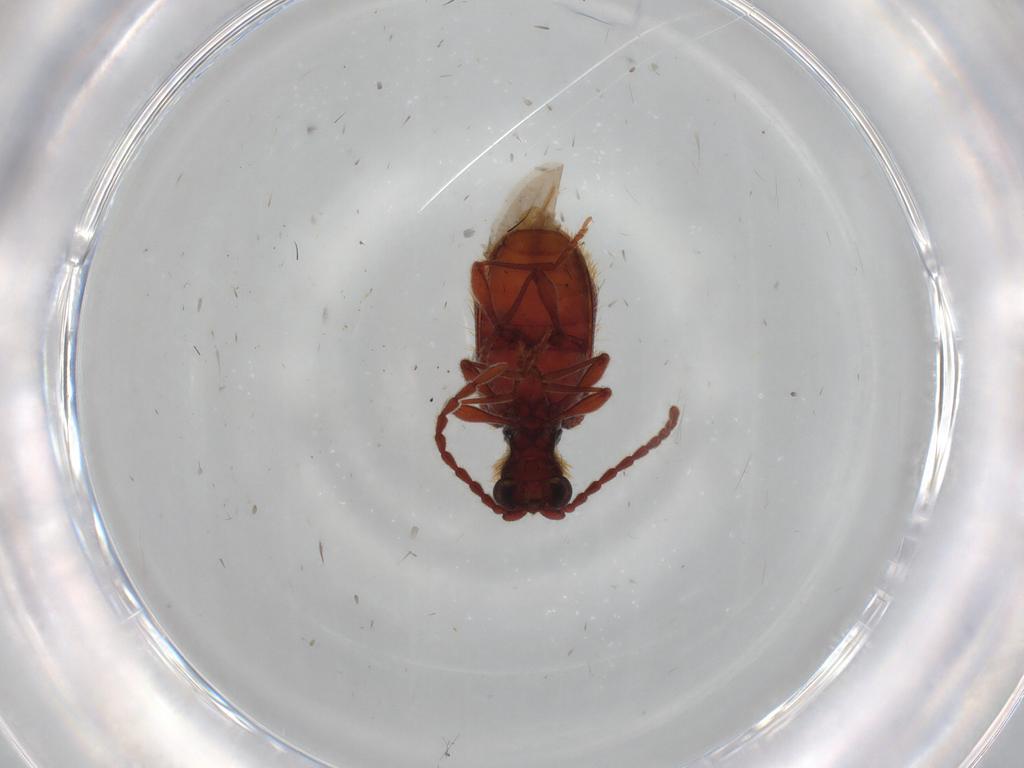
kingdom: Animalia
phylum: Arthropoda
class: Insecta
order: Coleoptera
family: Ptinidae
